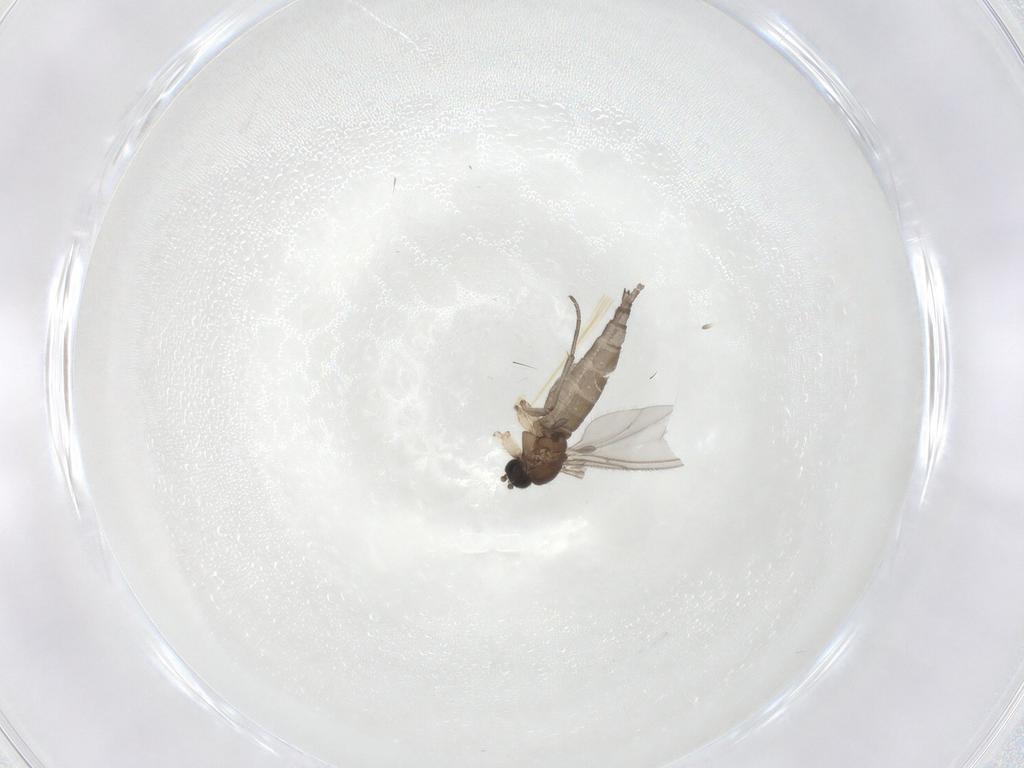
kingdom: Animalia
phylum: Arthropoda
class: Insecta
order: Diptera
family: Sciaridae
